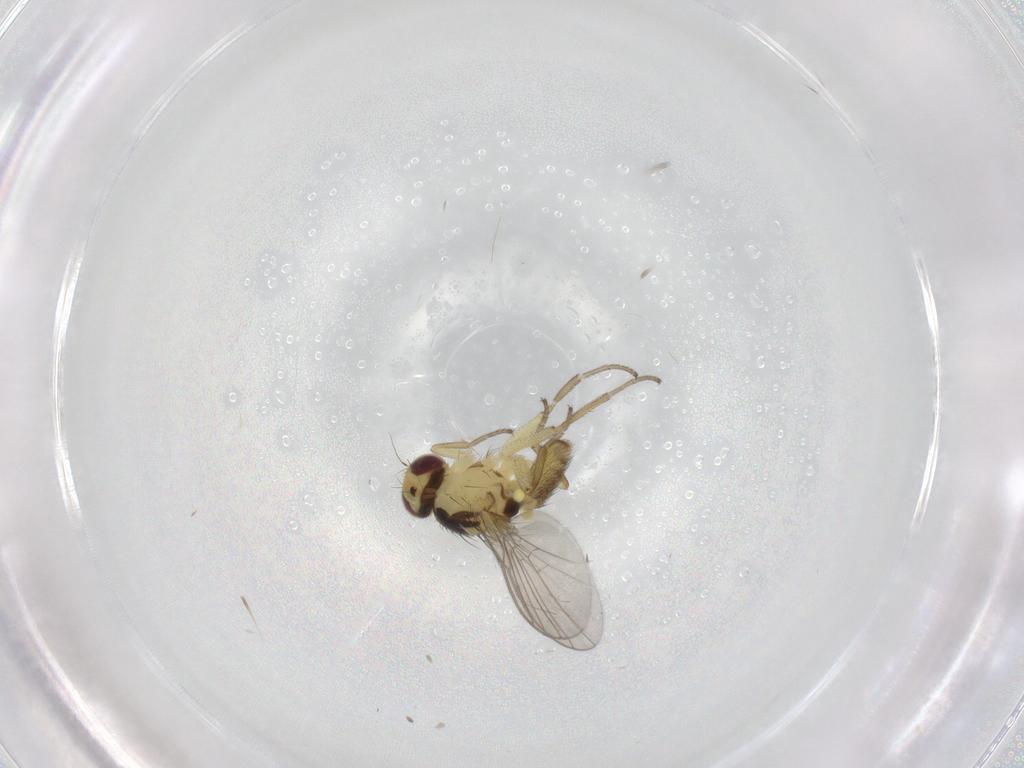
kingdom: Animalia
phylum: Arthropoda
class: Insecta
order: Diptera
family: Agromyzidae
